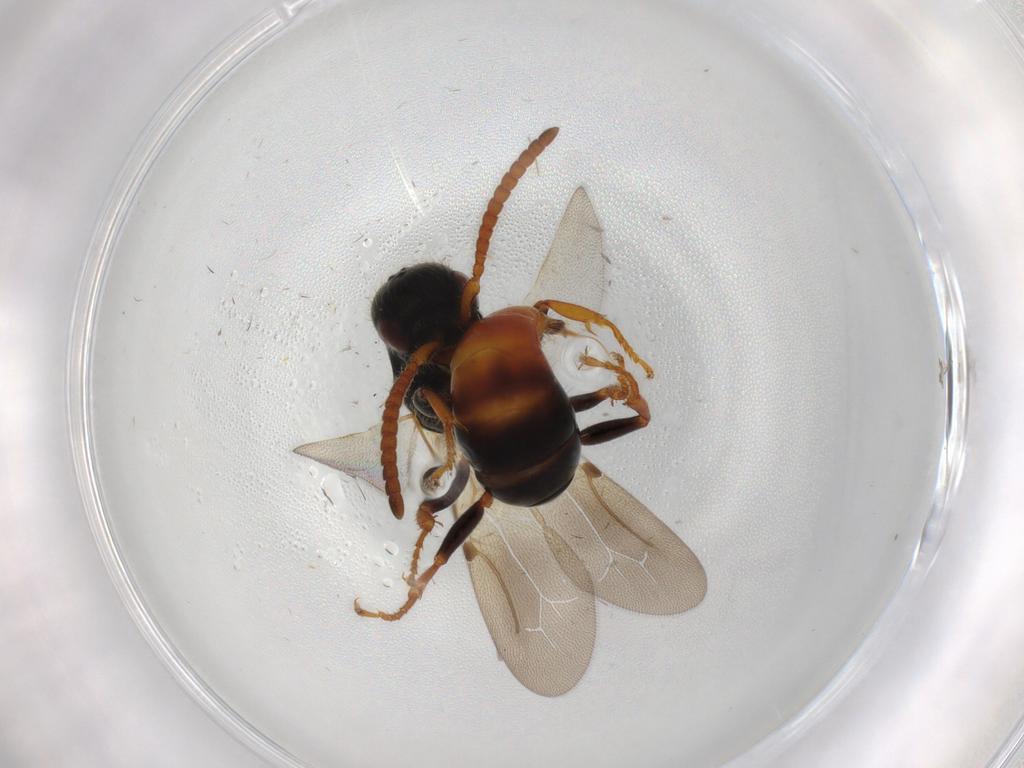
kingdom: Animalia
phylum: Arthropoda
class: Insecta
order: Hymenoptera
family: Bethylidae
